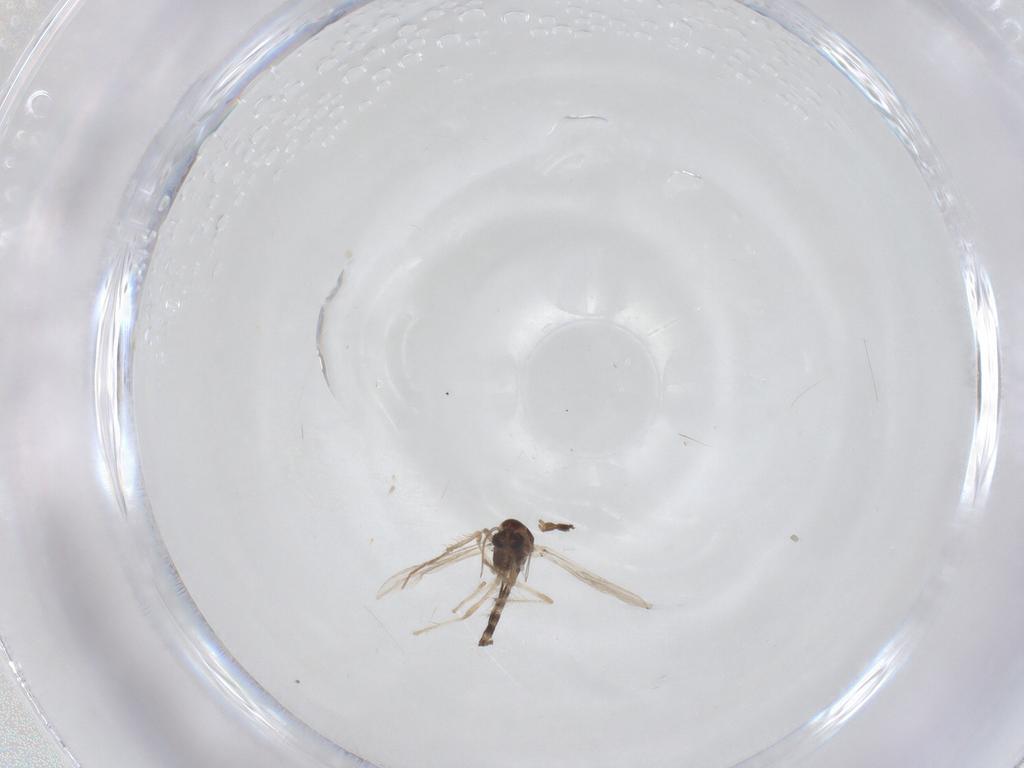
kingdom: Animalia
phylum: Arthropoda
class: Insecta
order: Diptera
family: Chironomidae
